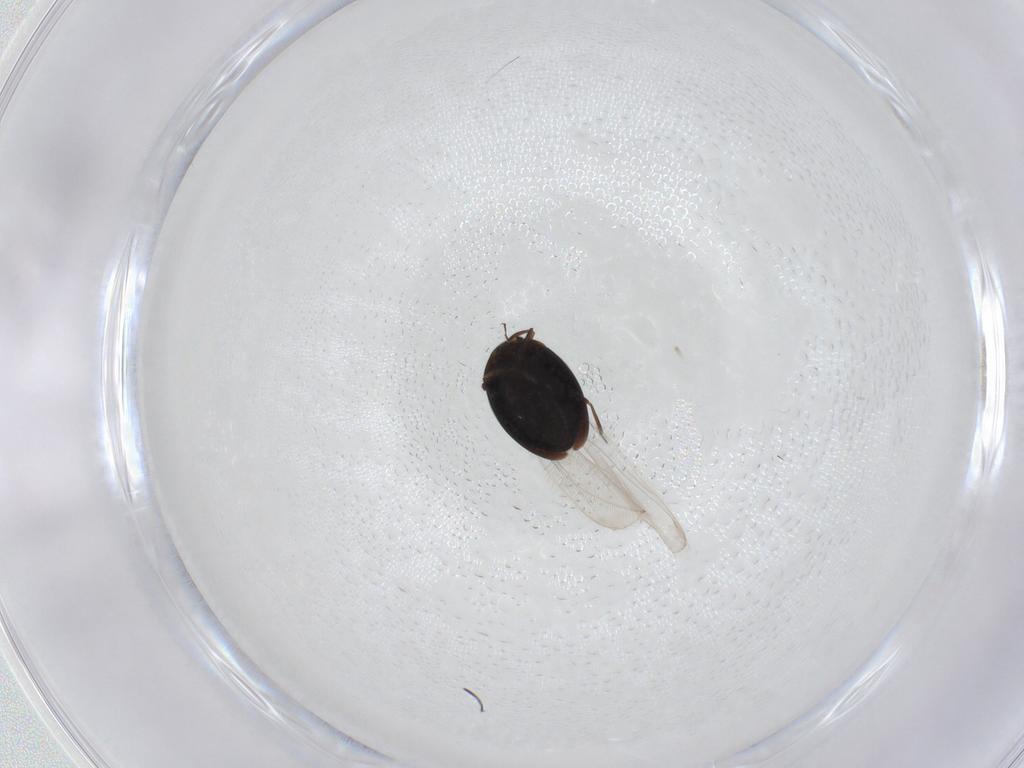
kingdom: Animalia
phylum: Arthropoda
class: Insecta
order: Coleoptera
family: Corylophidae
